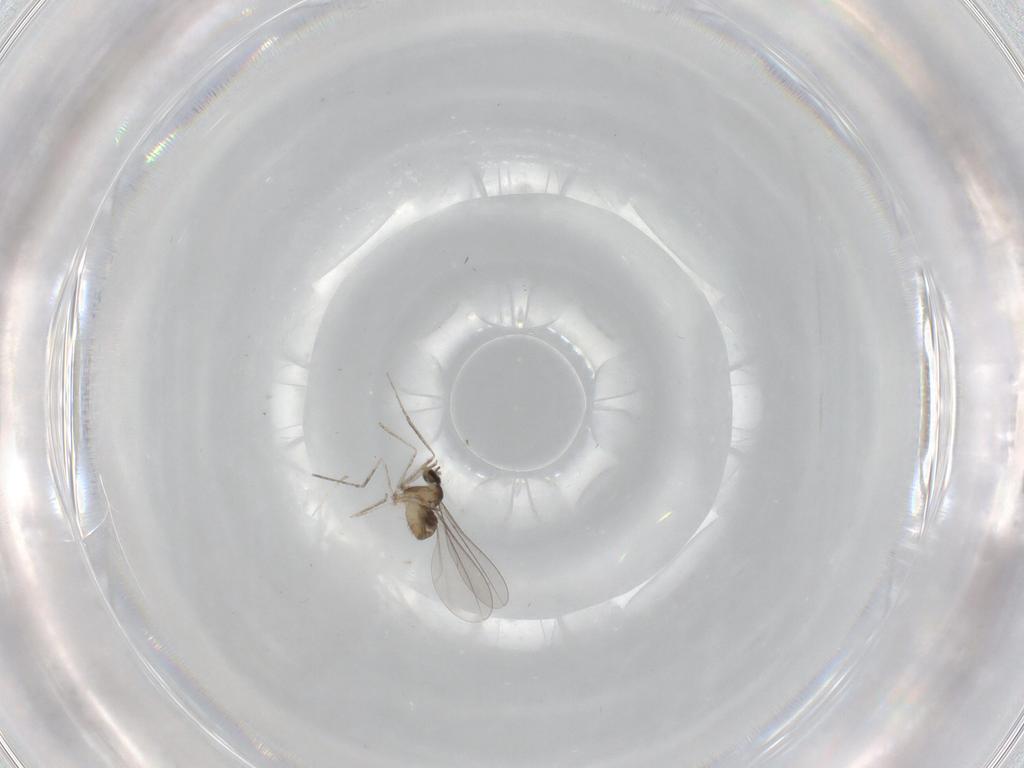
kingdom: Animalia
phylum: Arthropoda
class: Insecta
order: Diptera
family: Cecidomyiidae
